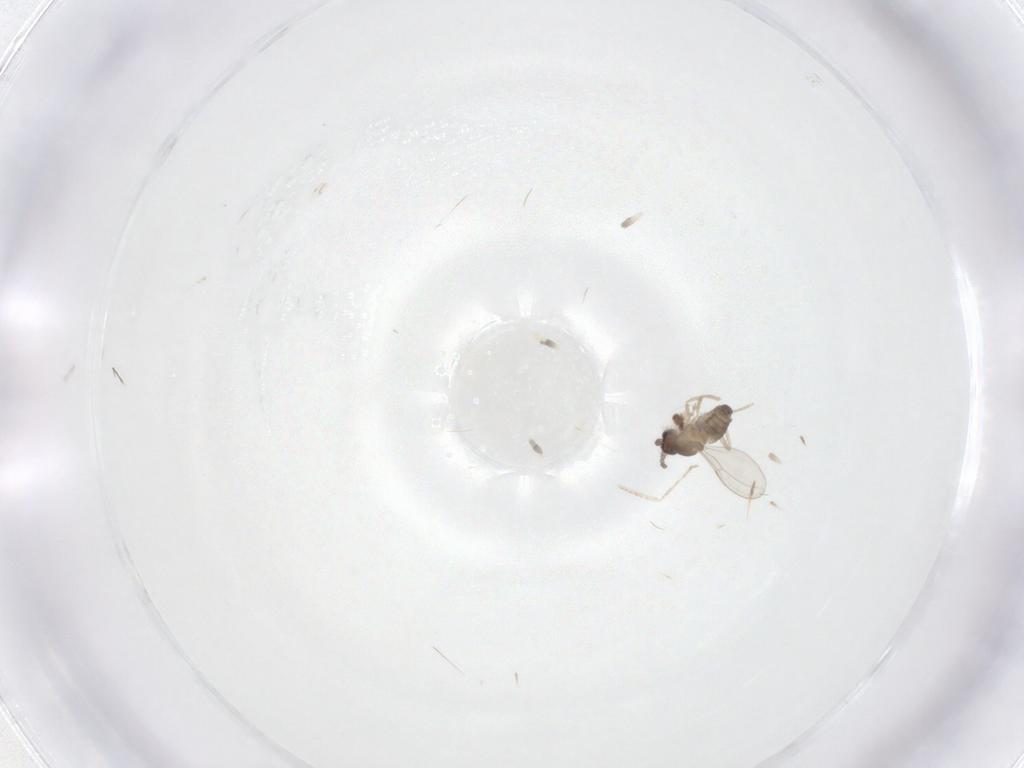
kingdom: Animalia
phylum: Arthropoda
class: Insecta
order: Diptera
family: Cecidomyiidae
